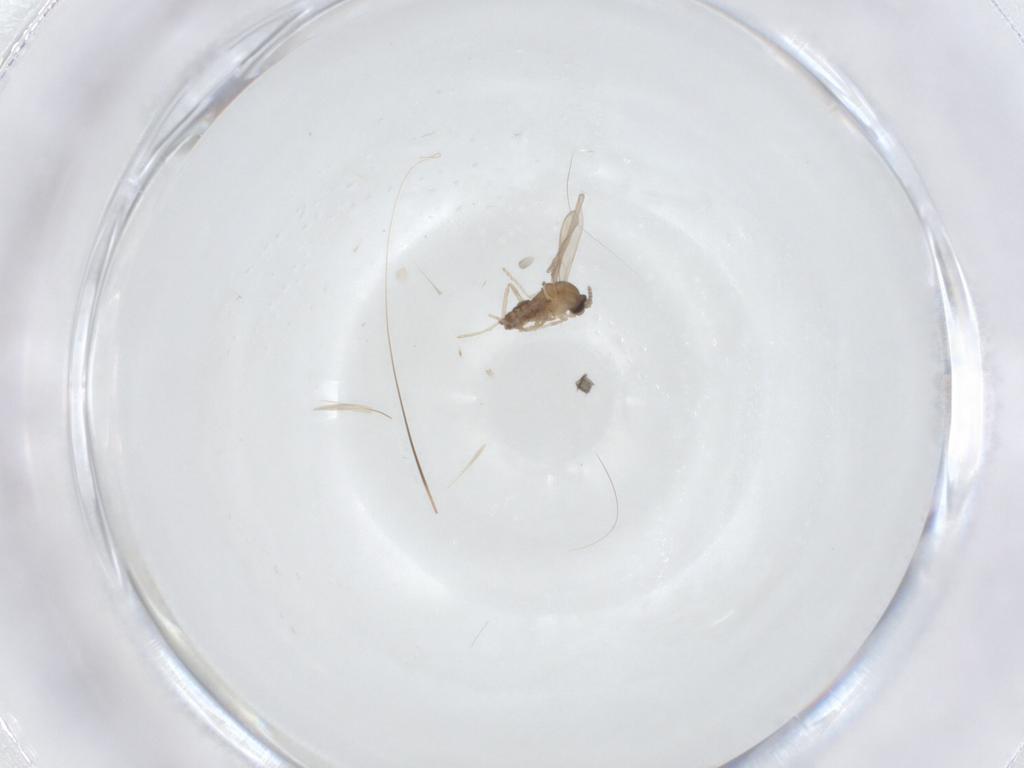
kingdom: Animalia
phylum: Arthropoda
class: Insecta
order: Diptera
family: Cecidomyiidae
